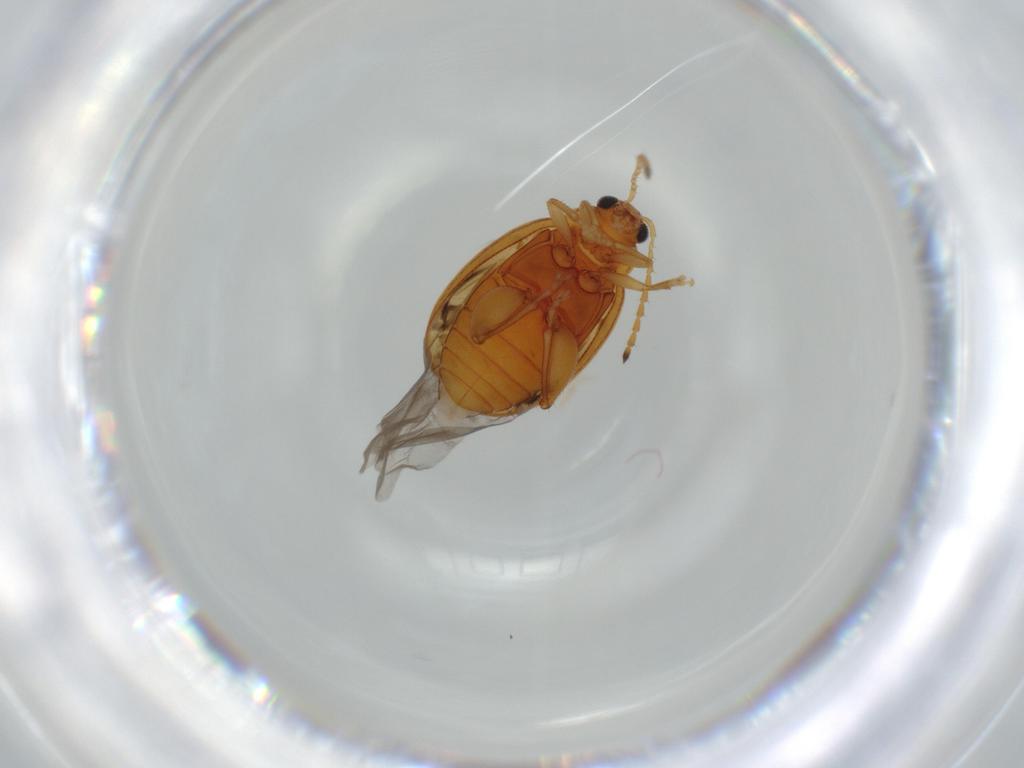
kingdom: Animalia
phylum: Arthropoda
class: Insecta
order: Coleoptera
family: Chrysomelidae
